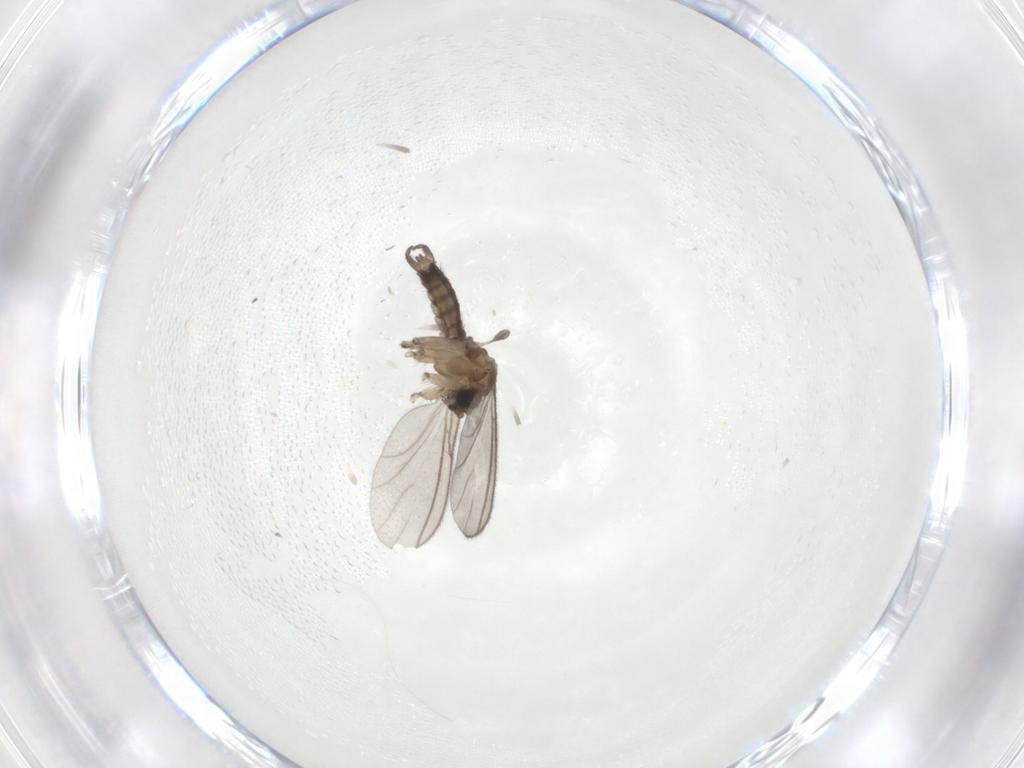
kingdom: Animalia
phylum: Arthropoda
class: Insecta
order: Diptera
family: Sciaridae
